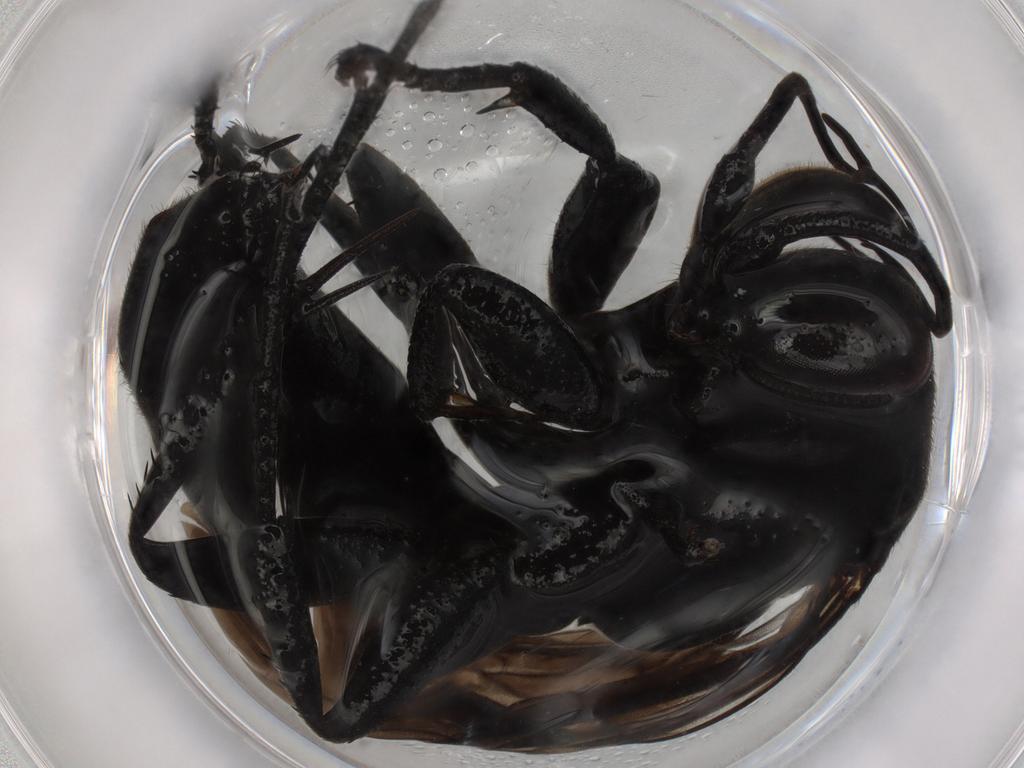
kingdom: Animalia
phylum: Arthropoda
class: Insecta
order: Hymenoptera
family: Pompilidae
